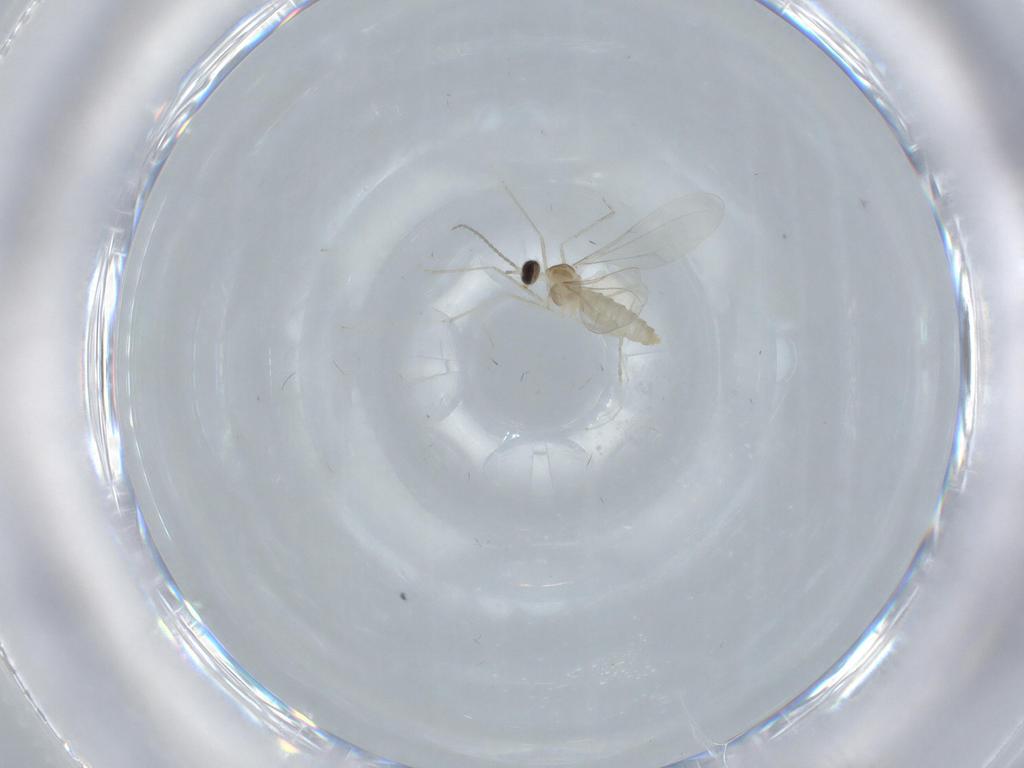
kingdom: Animalia
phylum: Arthropoda
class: Insecta
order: Diptera
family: Cecidomyiidae
